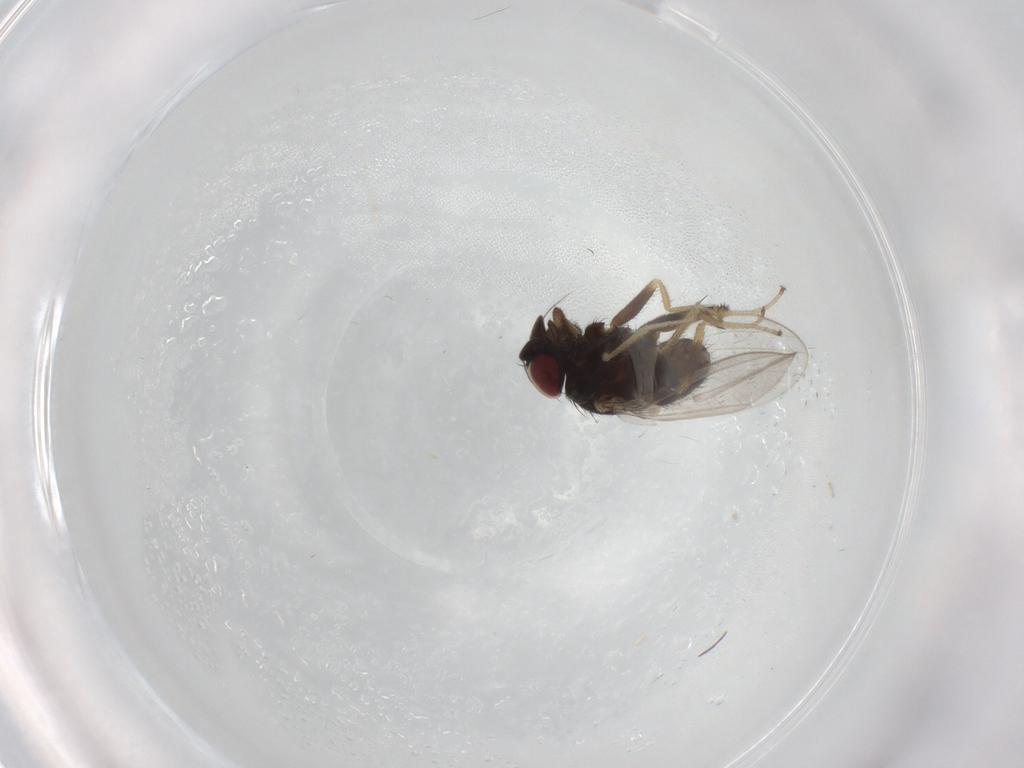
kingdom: Animalia
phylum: Arthropoda
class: Insecta
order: Diptera
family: Milichiidae
